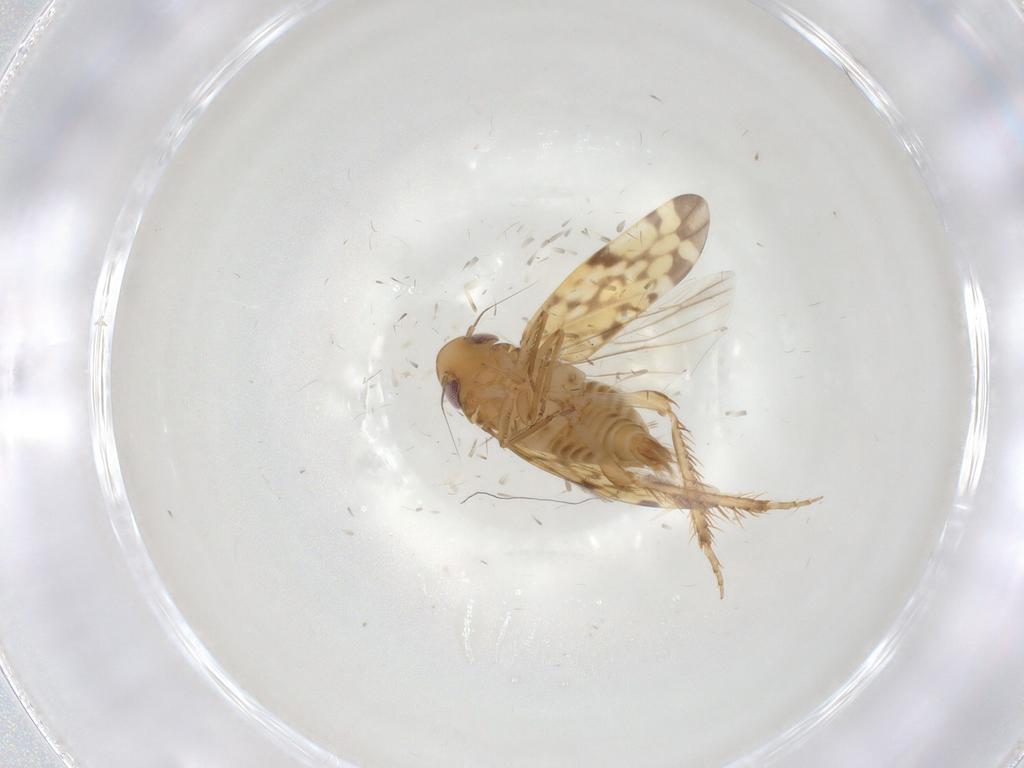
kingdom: Animalia
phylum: Arthropoda
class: Insecta
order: Hemiptera
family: Cicadellidae
